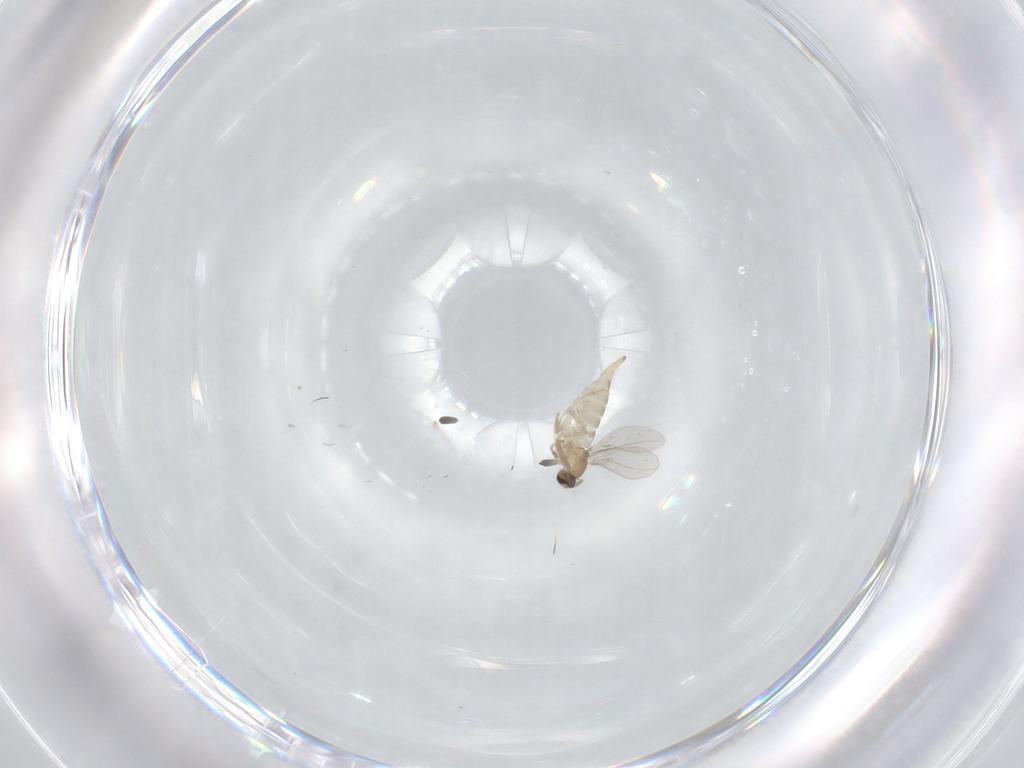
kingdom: Animalia
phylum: Arthropoda
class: Insecta
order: Diptera
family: Cecidomyiidae
